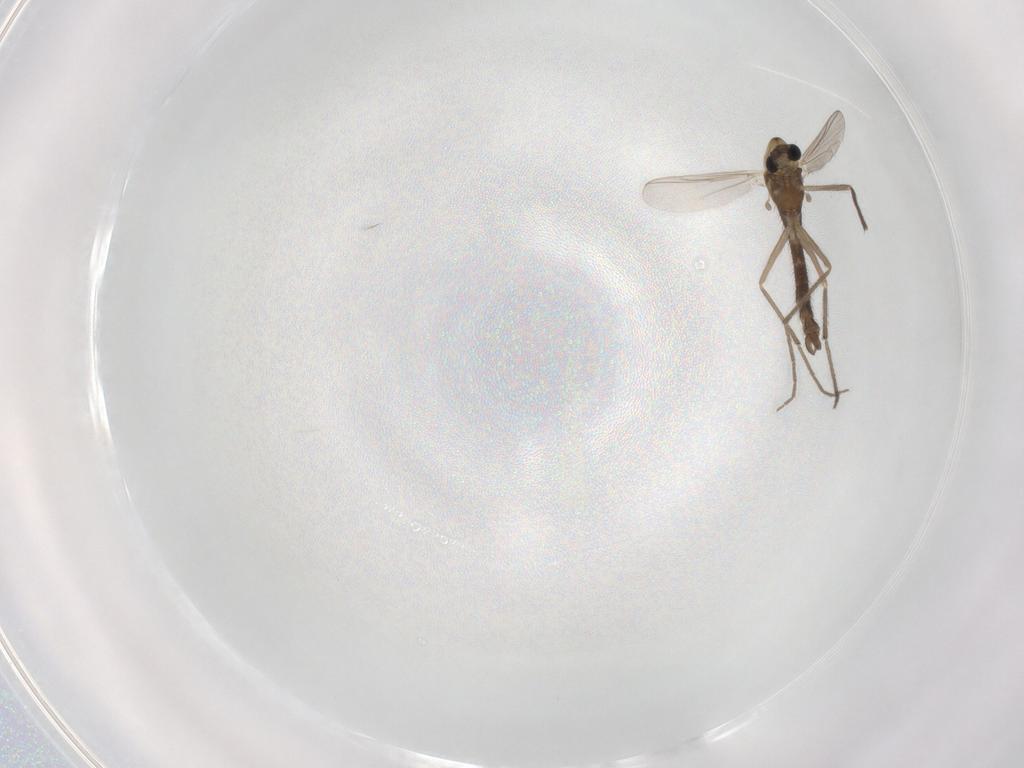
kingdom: Animalia
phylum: Arthropoda
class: Insecta
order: Diptera
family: Chironomidae
